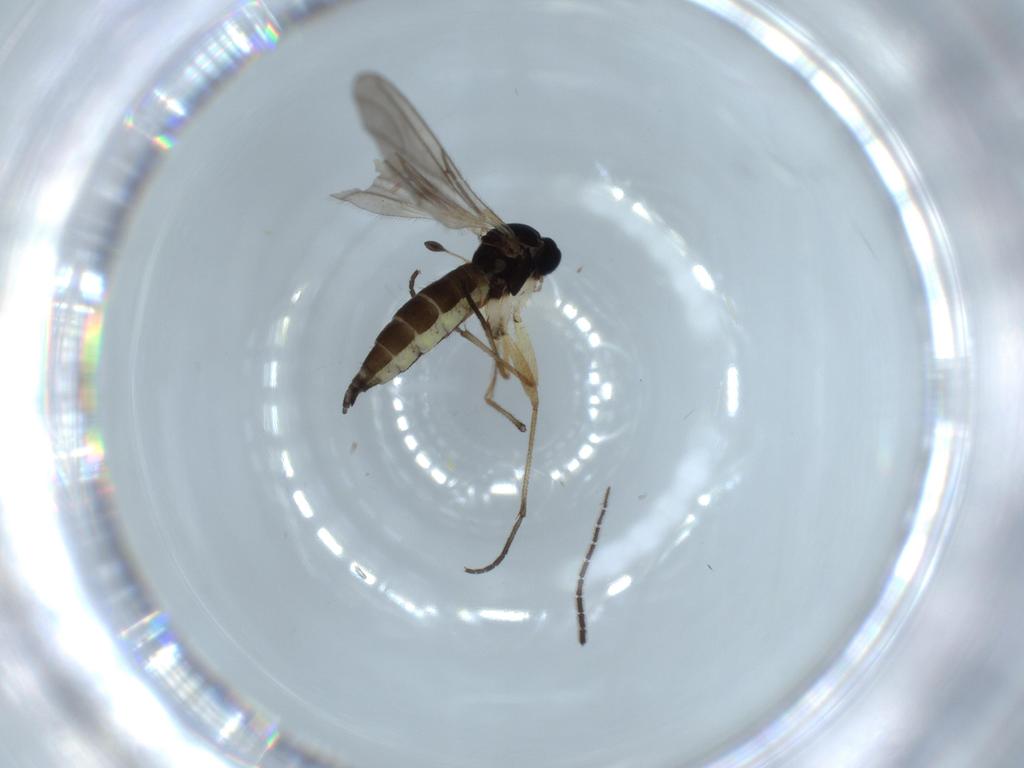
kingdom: Animalia
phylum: Arthropoda
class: Insecta
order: Diptera
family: Sciaridae
